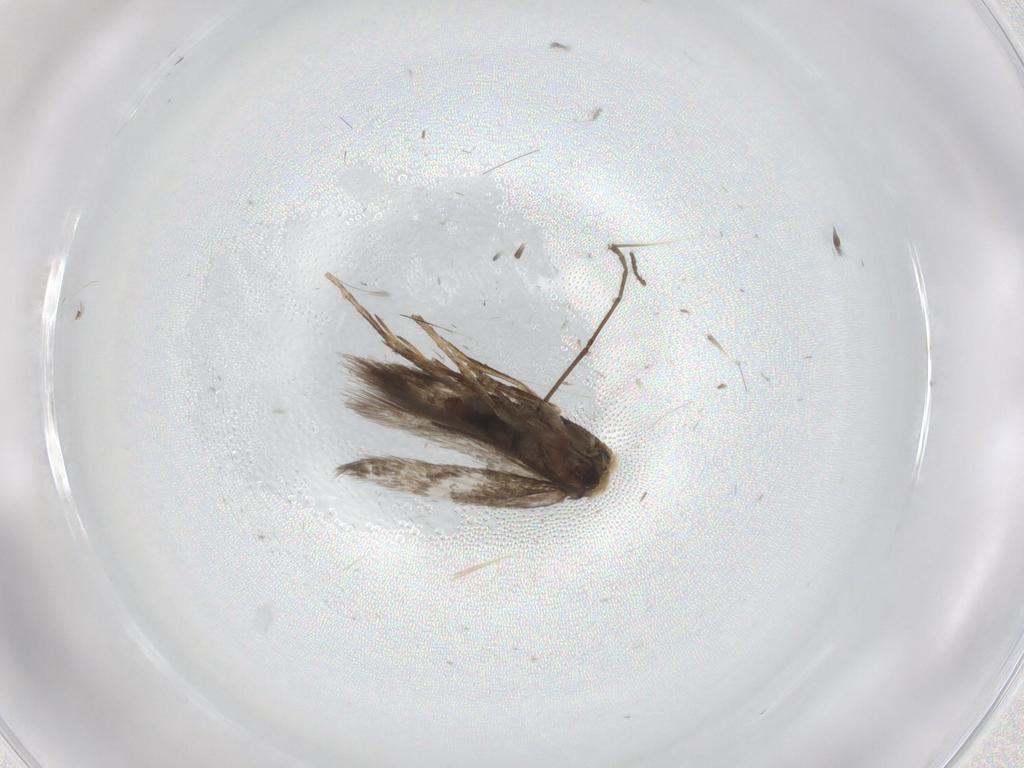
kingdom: Animalia
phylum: Arthropoda
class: Insecta
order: Lepidoptera
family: Nepticulidae
